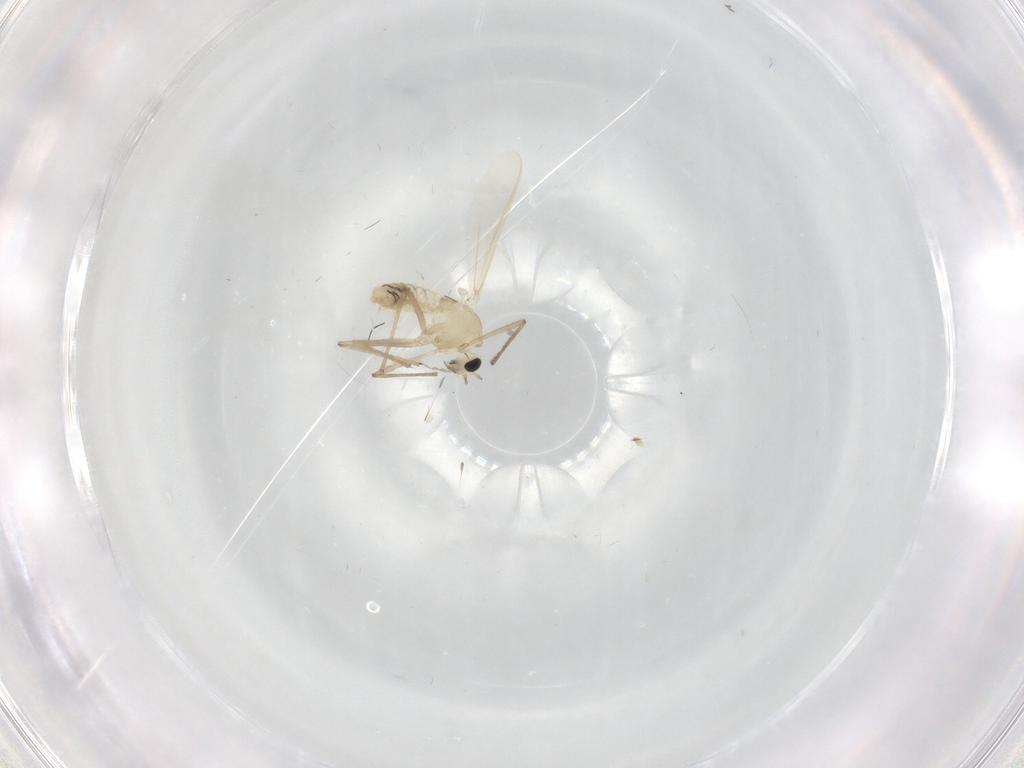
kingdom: Animalia
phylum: Arthropoda
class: Insecta
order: Diptera
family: Chironomidae
